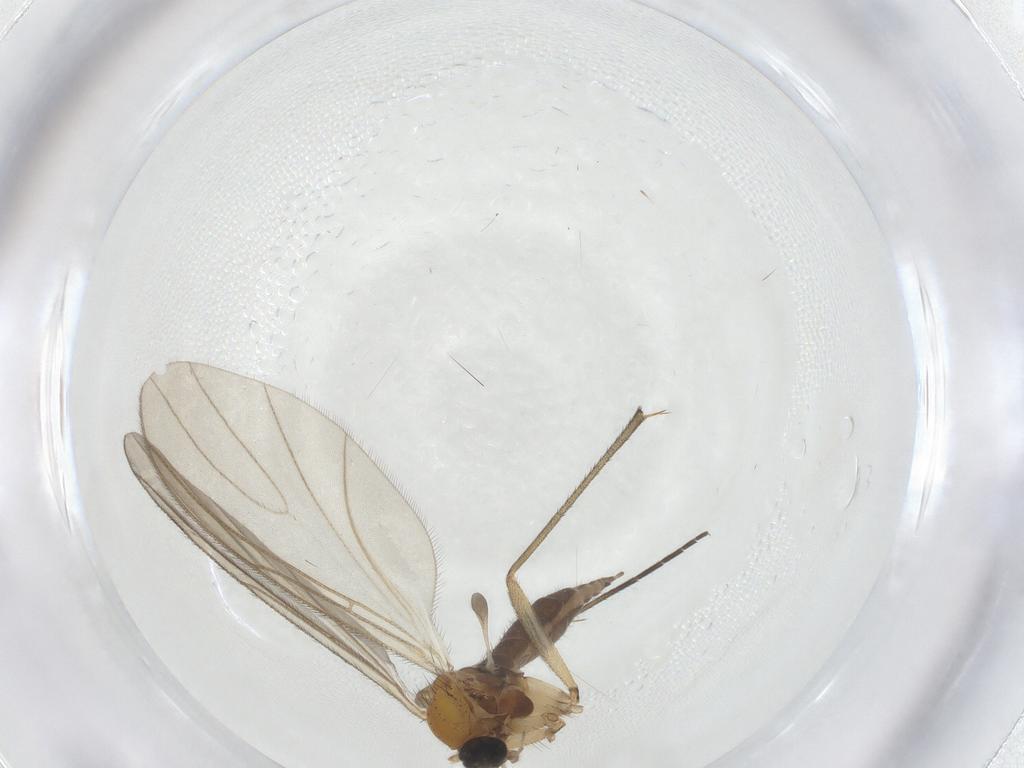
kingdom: Animalia
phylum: Arthropoda
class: Insecta
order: Diptera
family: Sciaridae
